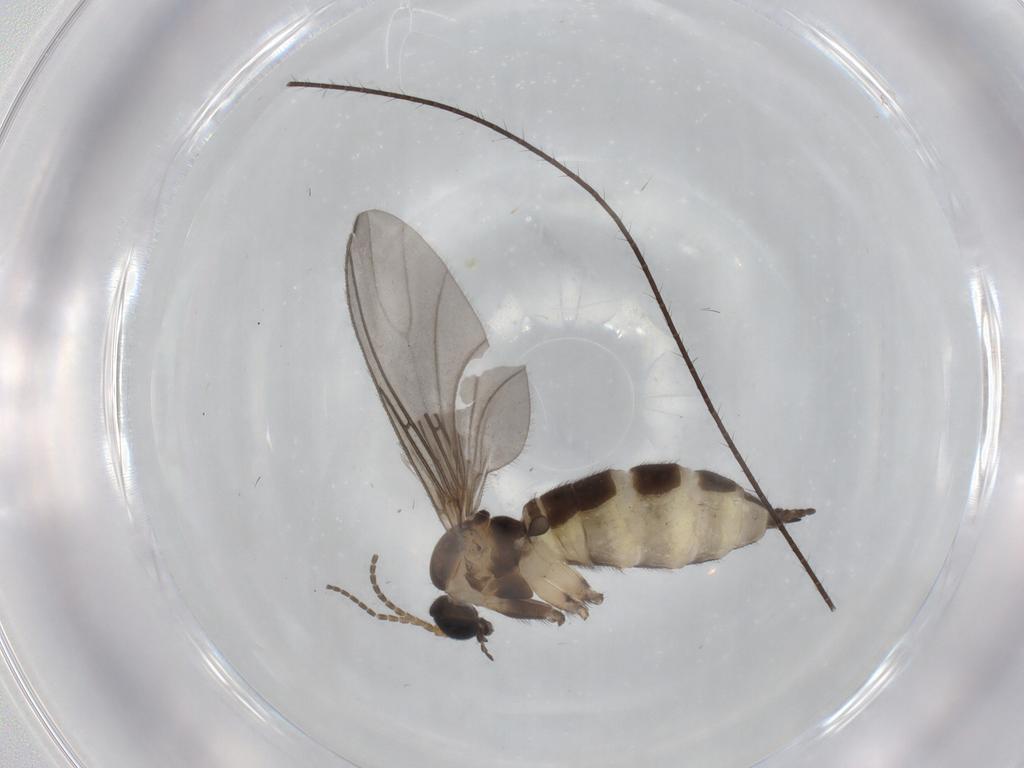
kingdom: Animalia
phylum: Arthropoda
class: Insecta
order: Diptera
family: Sciaridae
